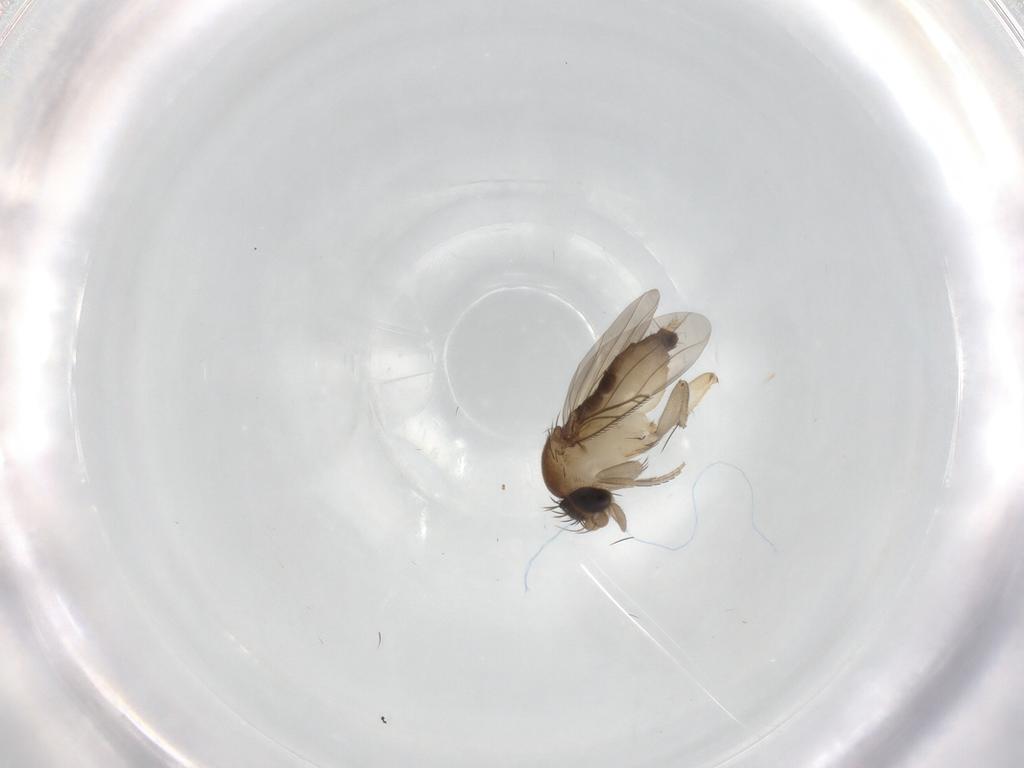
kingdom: Animalia
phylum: Arthropoda
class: Insecta
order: Diptera
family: Phoridae
